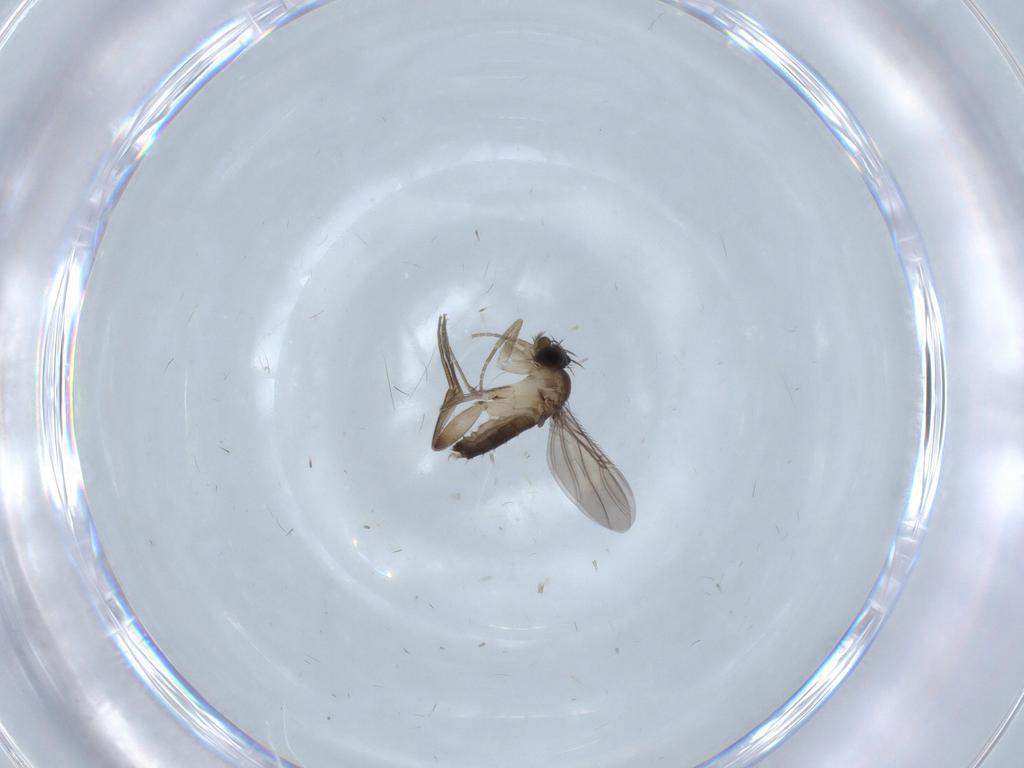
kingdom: Animalia
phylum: Arthropoda
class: Insecta
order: Diptera
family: Phoridae
